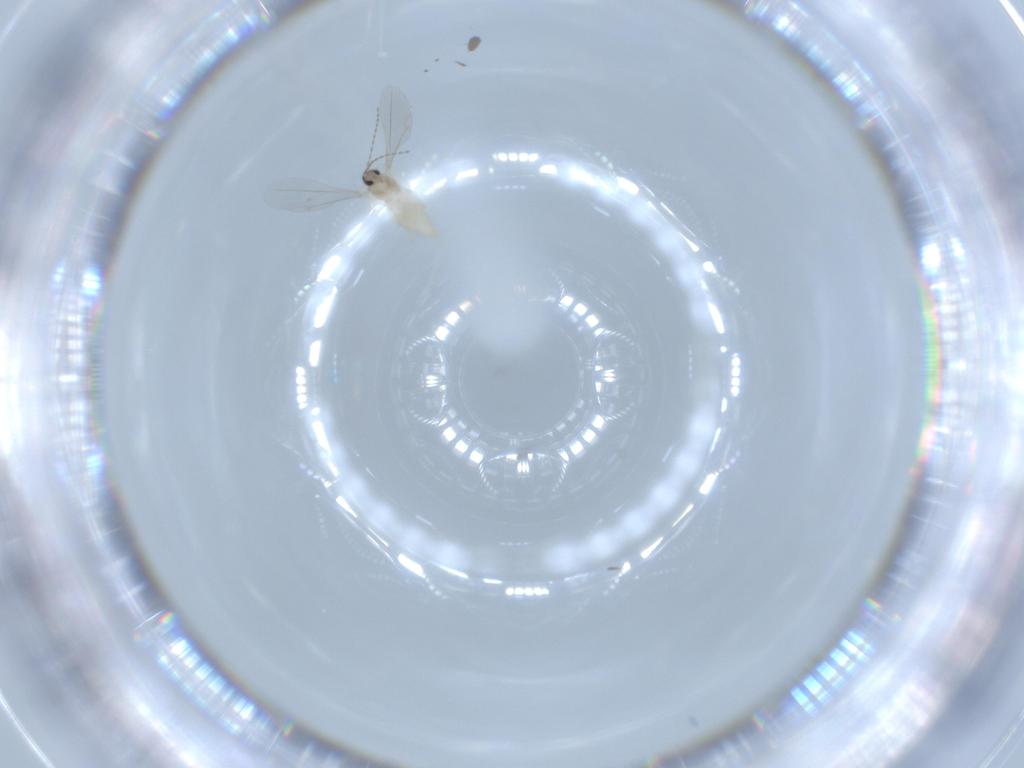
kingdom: Animalia
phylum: Arthropoda
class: Insecta
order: Diptera
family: Cecidomyiidae
